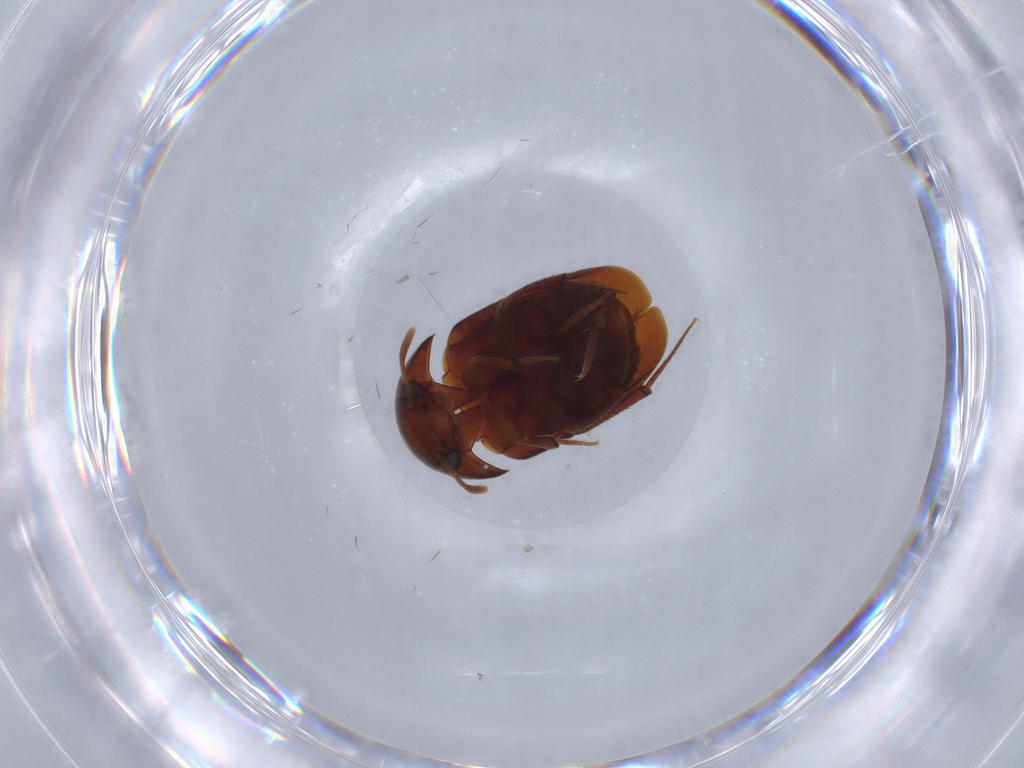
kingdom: Animalia
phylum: Arthropoda
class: Insecta
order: Coleoptera
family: Leiodidae
